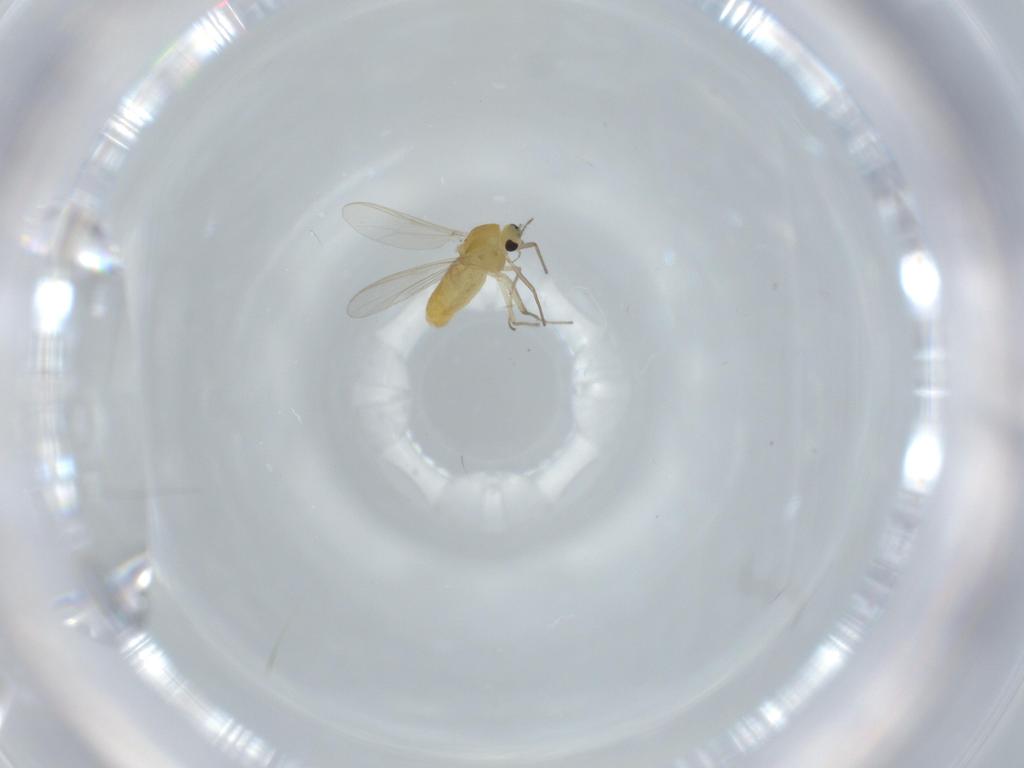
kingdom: Animalia
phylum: Arthropoda
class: Insecta
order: Diptera
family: Chironomidae
